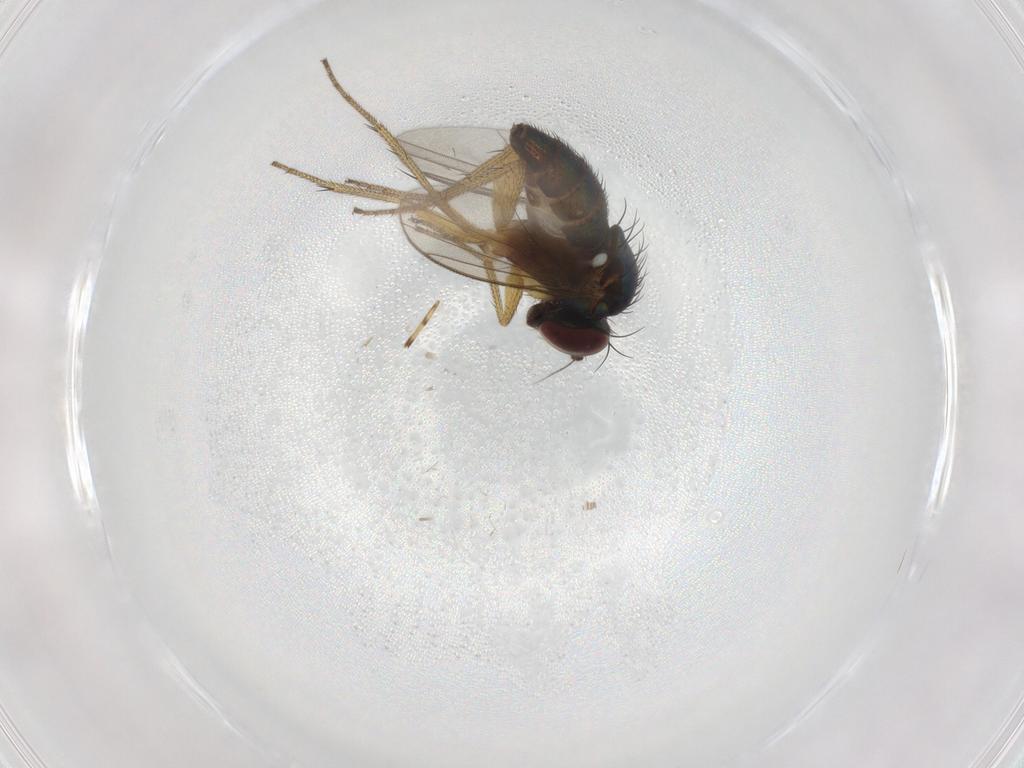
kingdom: Animalia
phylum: Arthropoda
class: Insecta
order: Diptera
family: Dolichopodidae
